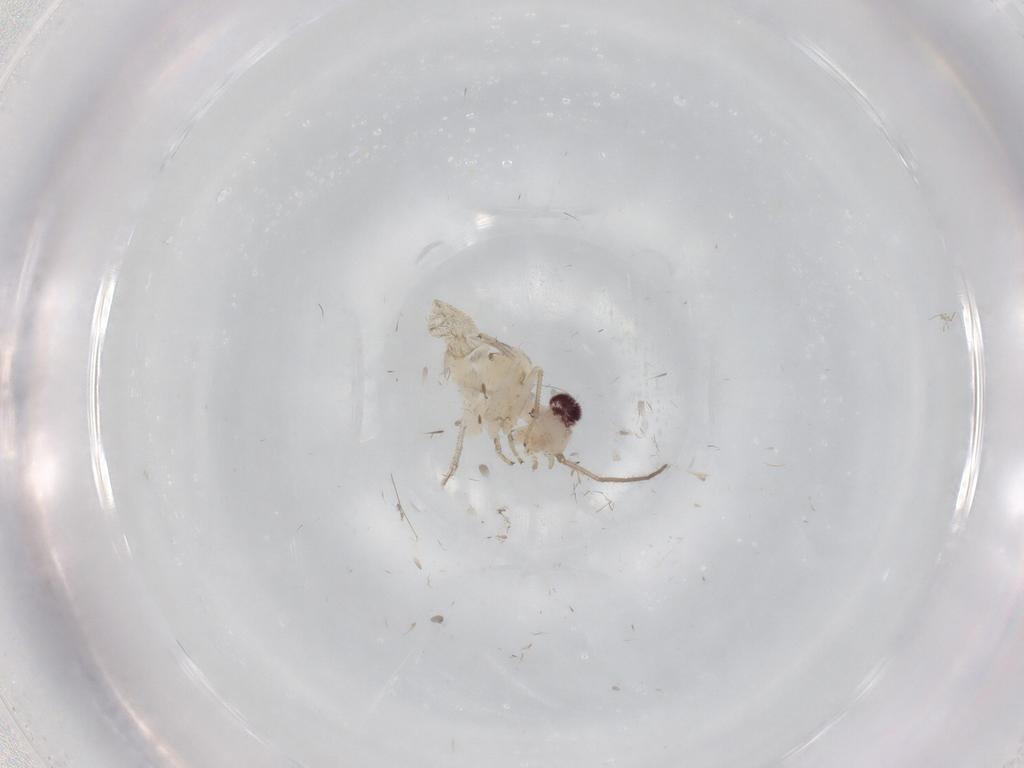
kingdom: Animalia
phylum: Arthropoda
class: Insecta
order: Psocodea
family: Caeciliusidae
